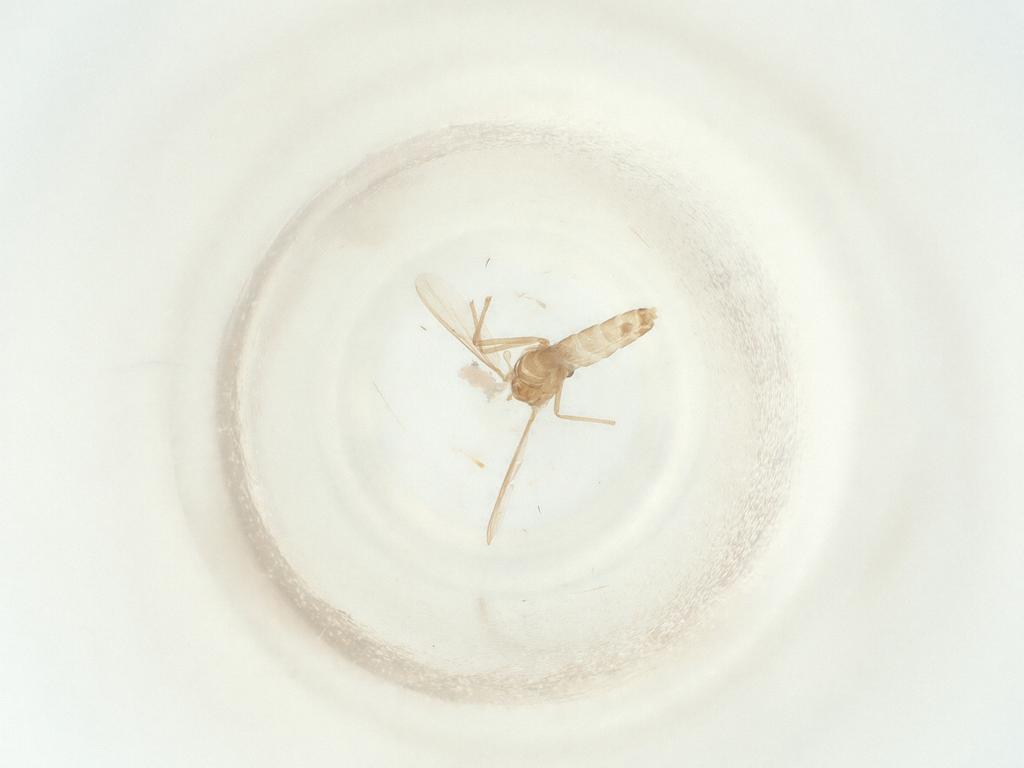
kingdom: Animalia
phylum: Arthropoda
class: Insecta
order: Diptera
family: Chironomidae
